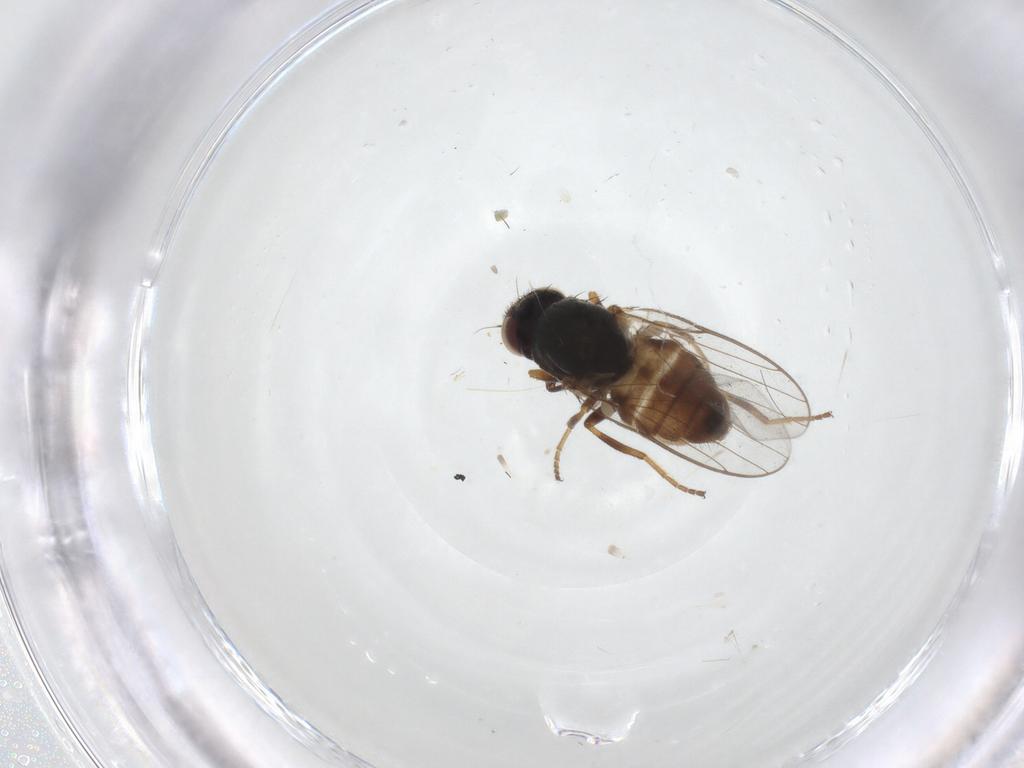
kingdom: Animalia
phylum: Arthropoda
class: Insecta
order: Diptera
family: Chloropidae
